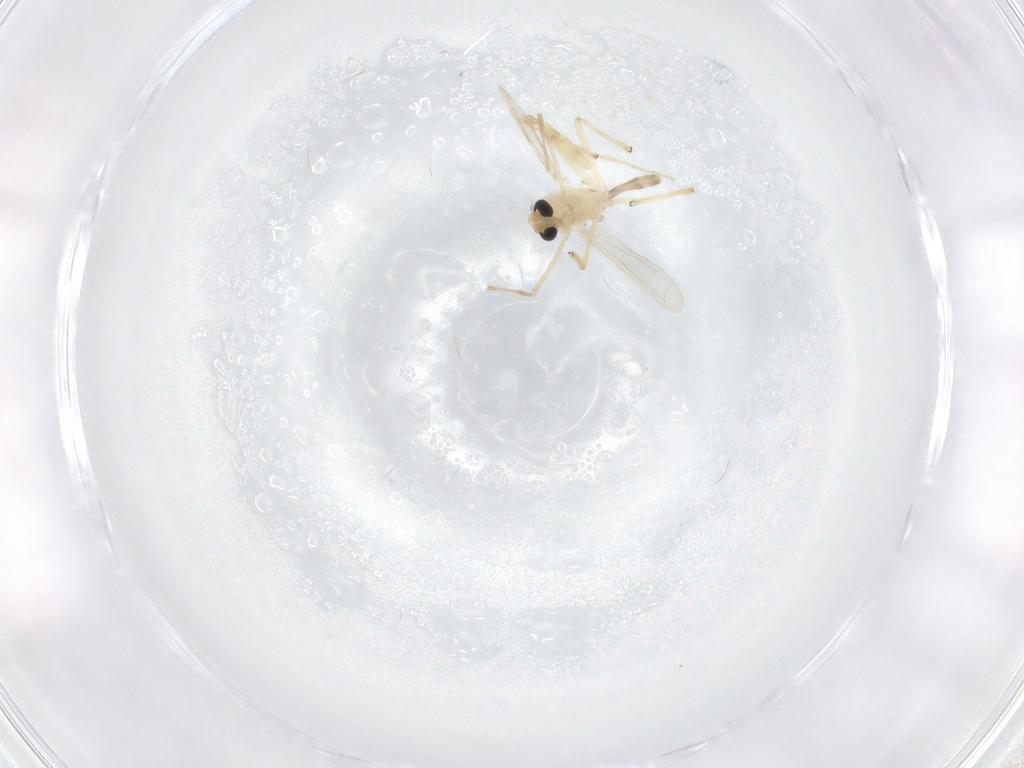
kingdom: Animalia
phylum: Arthropoda
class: Insecta
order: Diptera
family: Chironomidae
